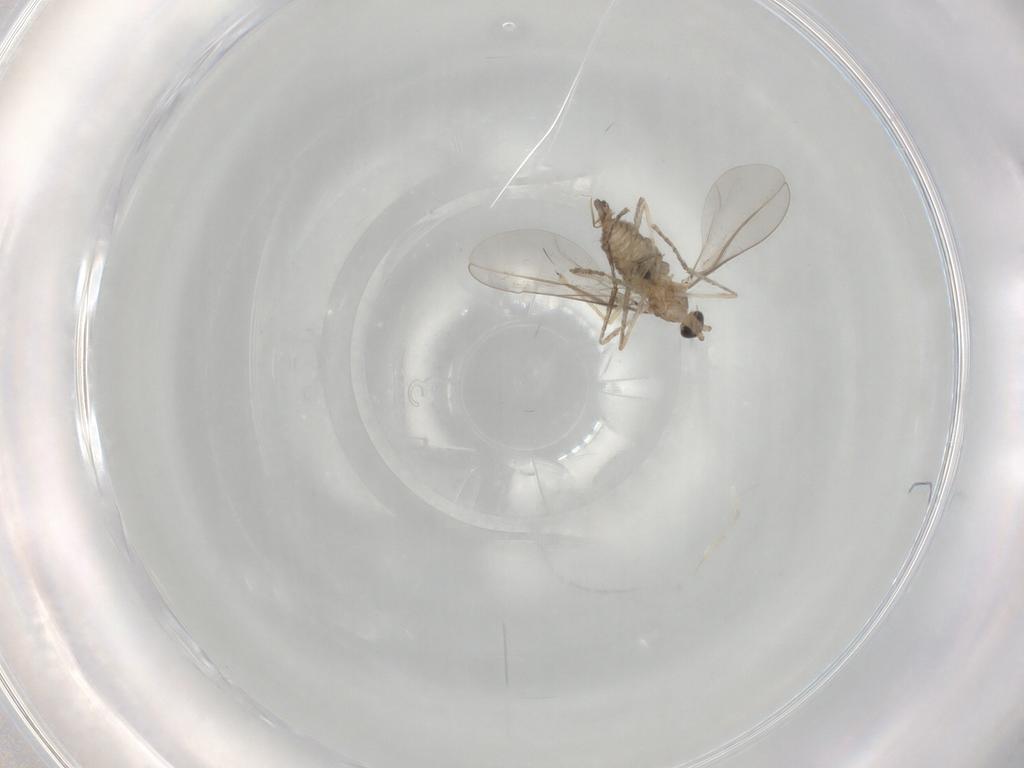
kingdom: Animalia
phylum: Arthropoda
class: Insecta
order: Diptera
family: Cecidomyiidae
